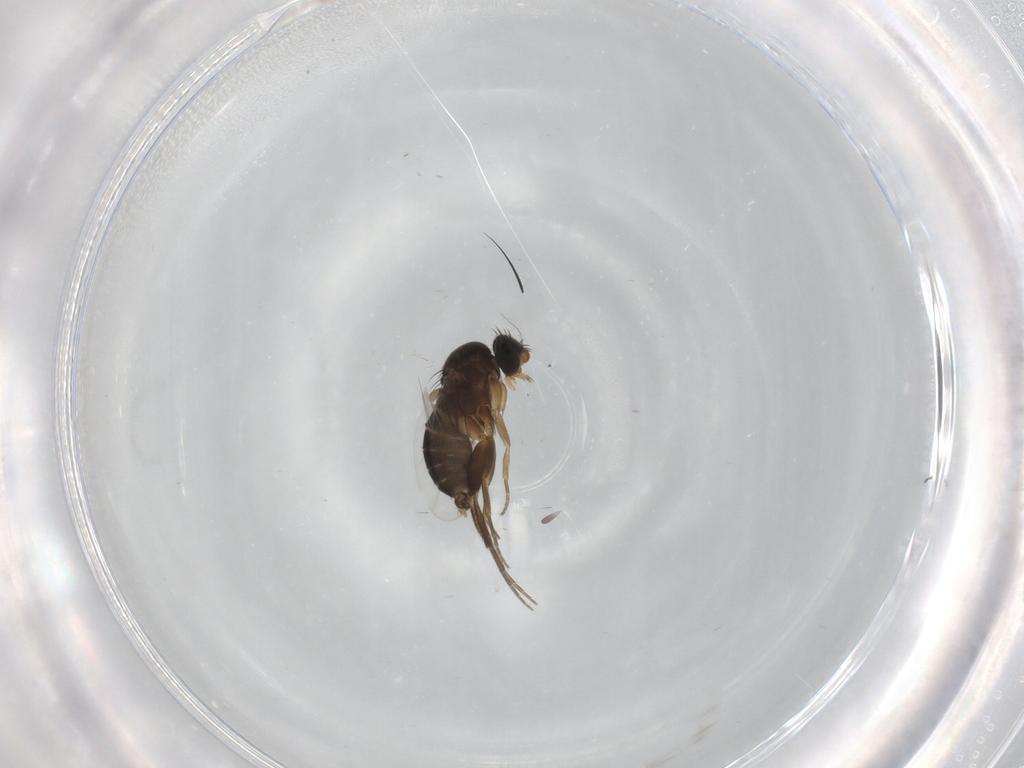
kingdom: Animalia
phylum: Arthropoda
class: Insecta
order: Diptera
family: Phoridae
